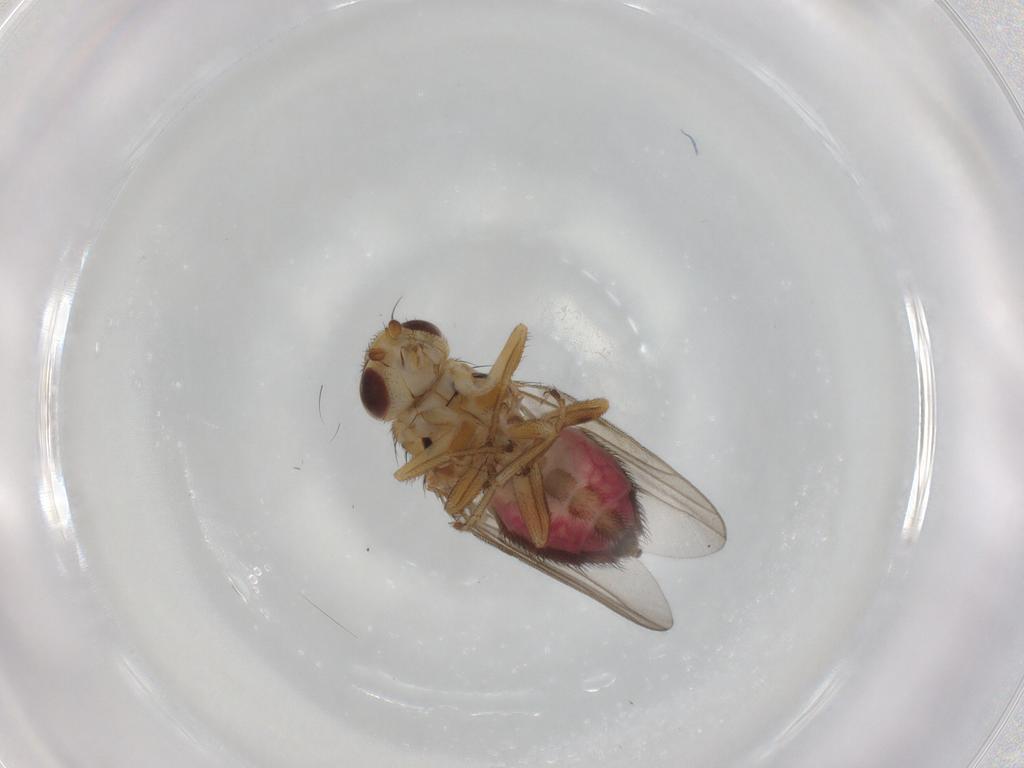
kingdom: Animalia
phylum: Arthropoda
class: Insecta
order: Diptera
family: Chloropidae
